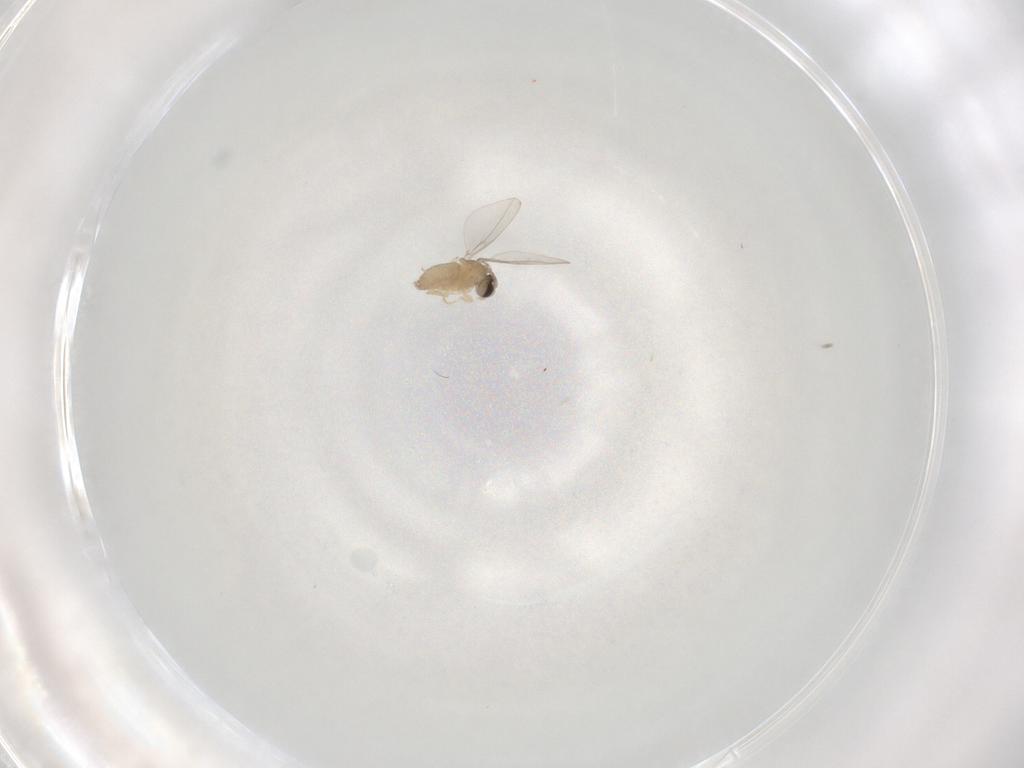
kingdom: Animalia
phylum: Arthropoda
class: Insecta
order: Diptera
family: Cecidomyiidae
